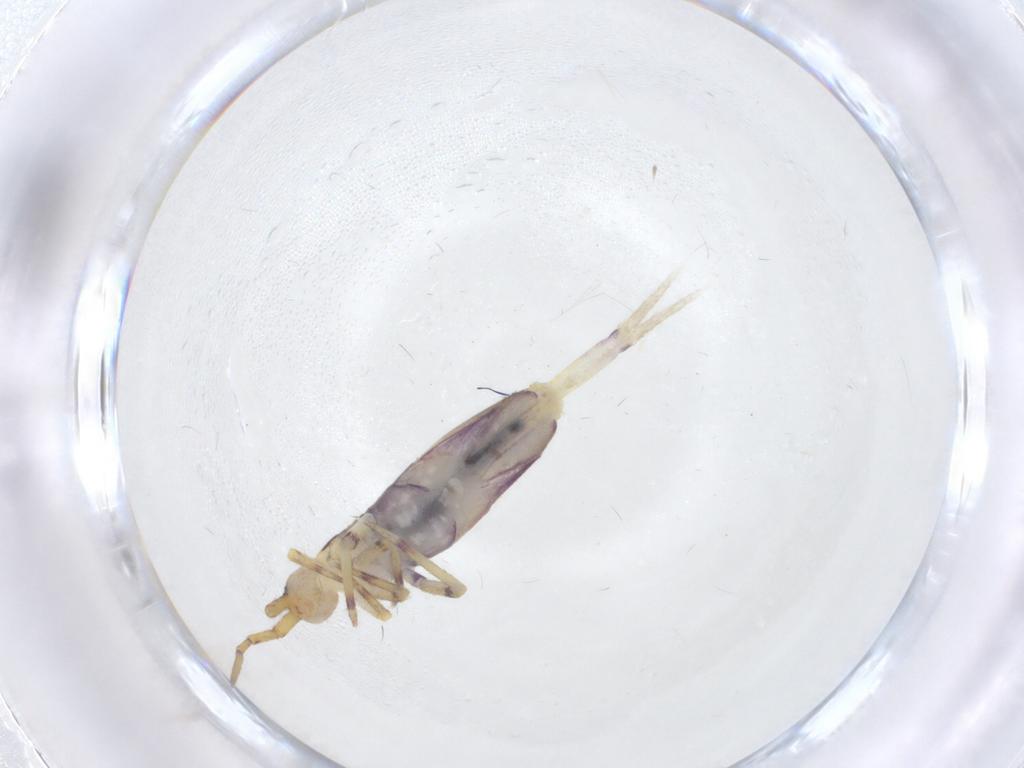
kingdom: Animalia
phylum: Arthropoda
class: Collembola
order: Entomobryomorpha
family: Entomobryidae
